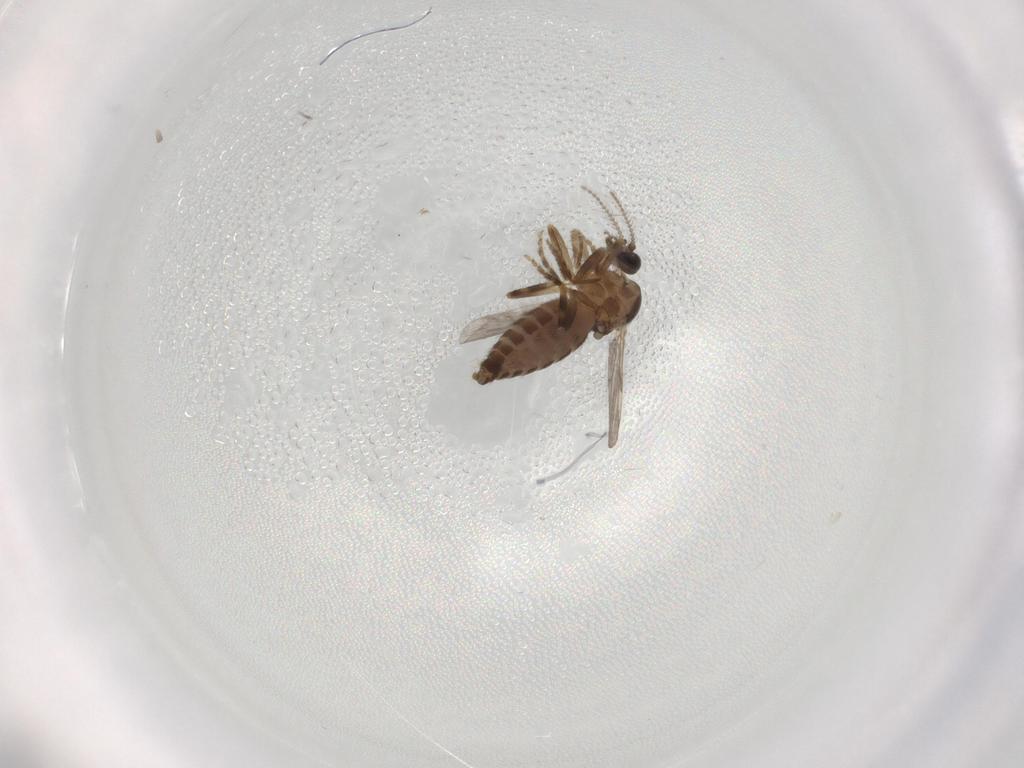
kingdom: Animalia
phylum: Arthropoda
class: Insecta
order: Diptera
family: Ceratopogonidae
